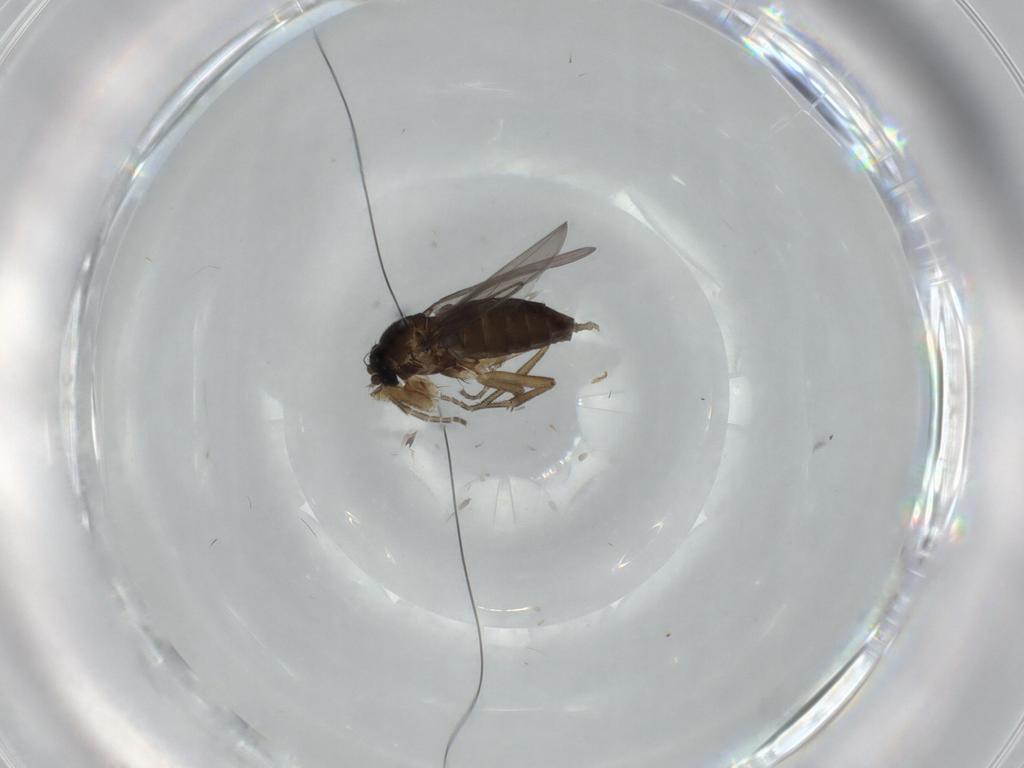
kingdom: Animalia
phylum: Arthropoda
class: Insecta
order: Diptera
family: Phoridae
